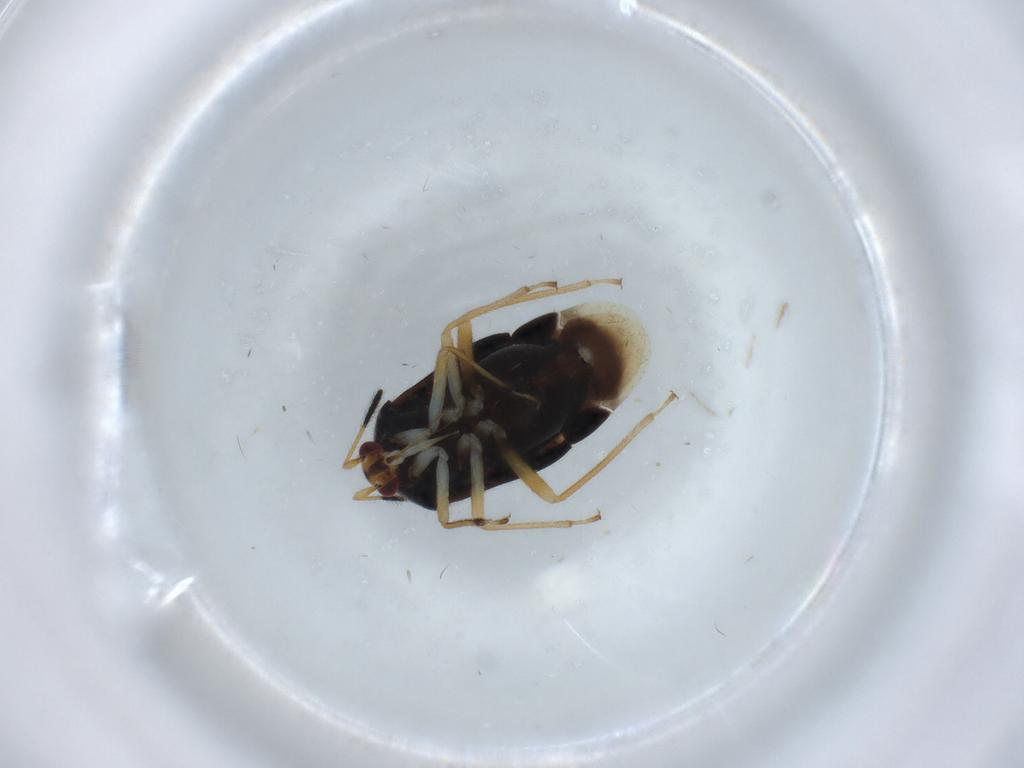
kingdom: Animalia
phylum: Arthropoda
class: Insecta
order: Hemiptera
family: Miridae
